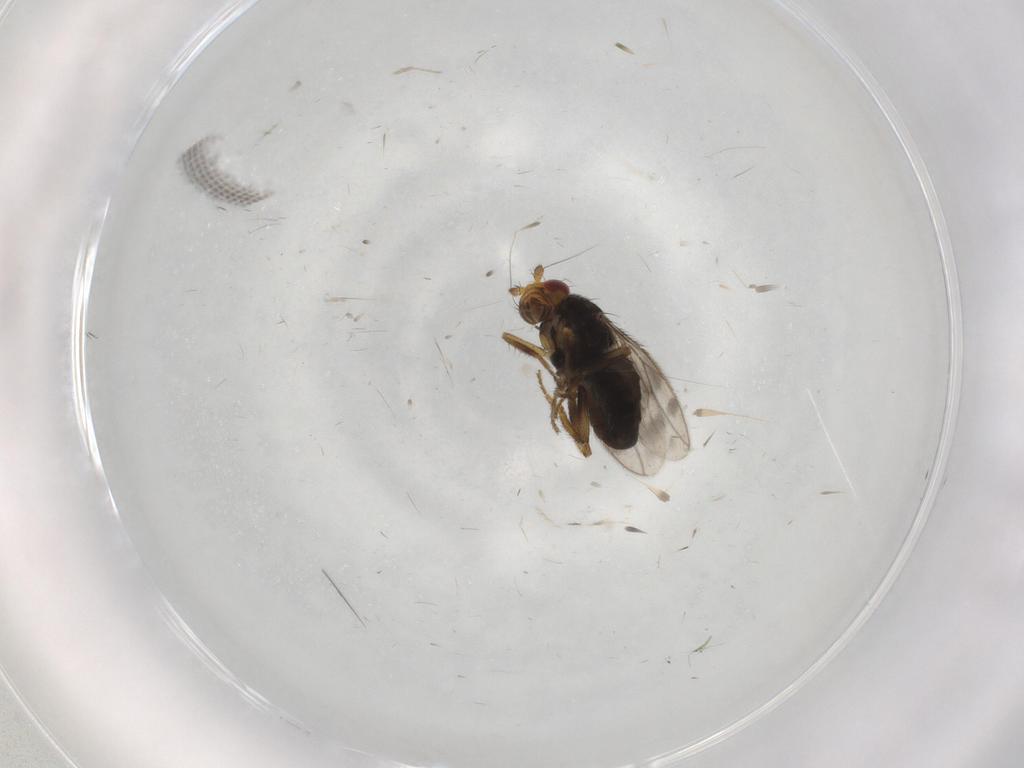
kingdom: Animalia
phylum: Arthropoda
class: Insecta
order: Diptera
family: Sphaeroceridae
